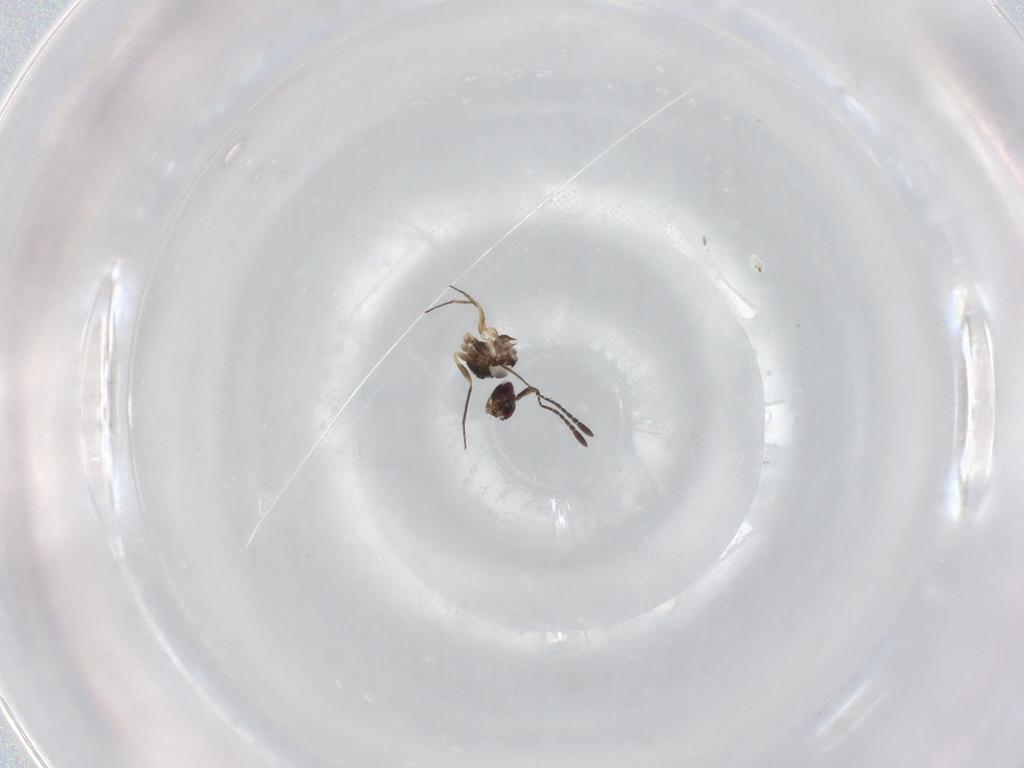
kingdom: Animalia
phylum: Arthropoda
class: Insecta
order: Hymenoptera
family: Mymaridae
